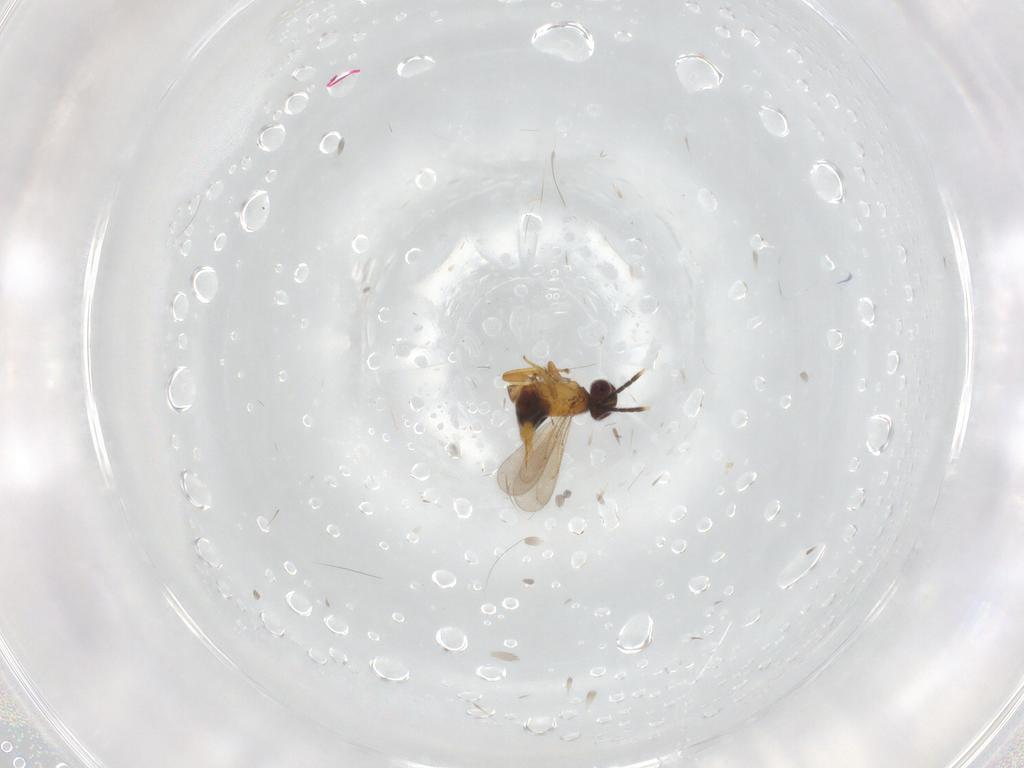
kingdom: Animalia
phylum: Arthropoda
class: Insecta
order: Hymenoptera
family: Aphelinidae
